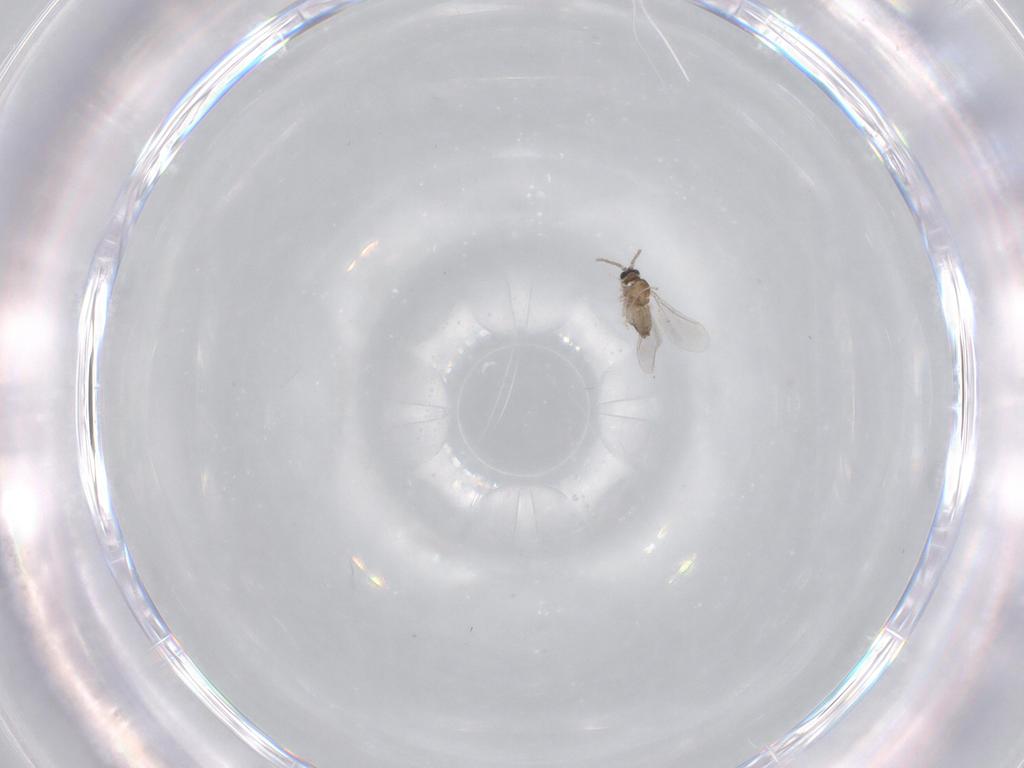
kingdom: Animalia
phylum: Arthropoda
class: Insecta
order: Diptera
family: Cecidomyiidae
